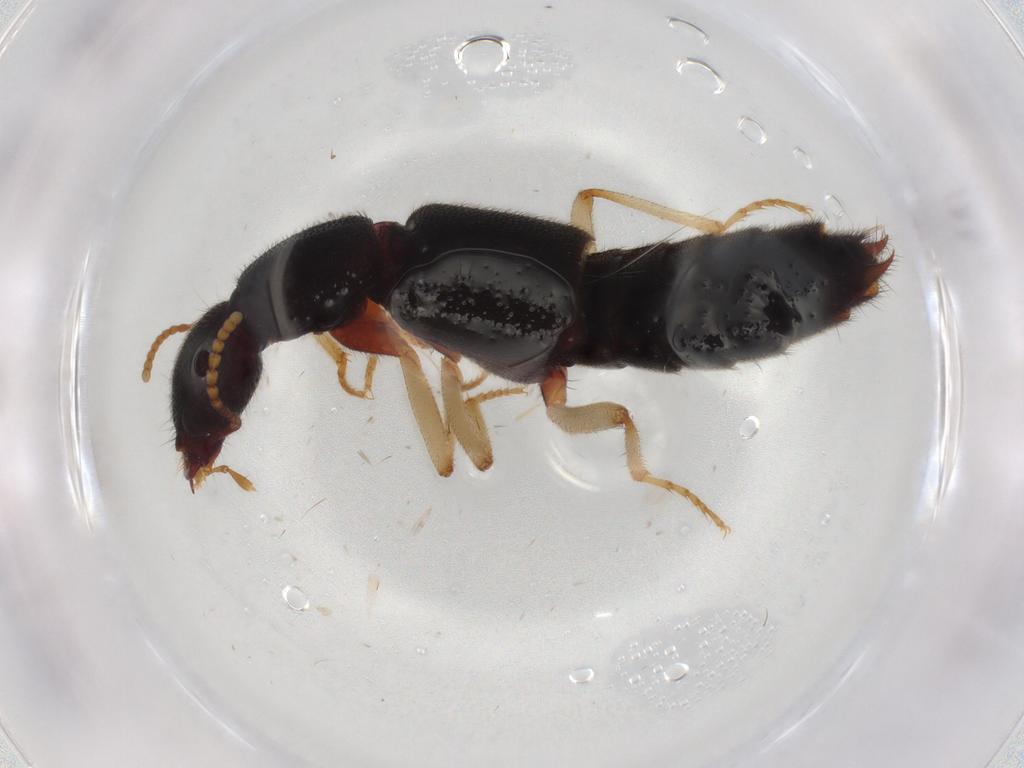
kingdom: Animalia
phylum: Arthropoda
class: Insecta
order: Coleoptera
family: Staphylinidae
